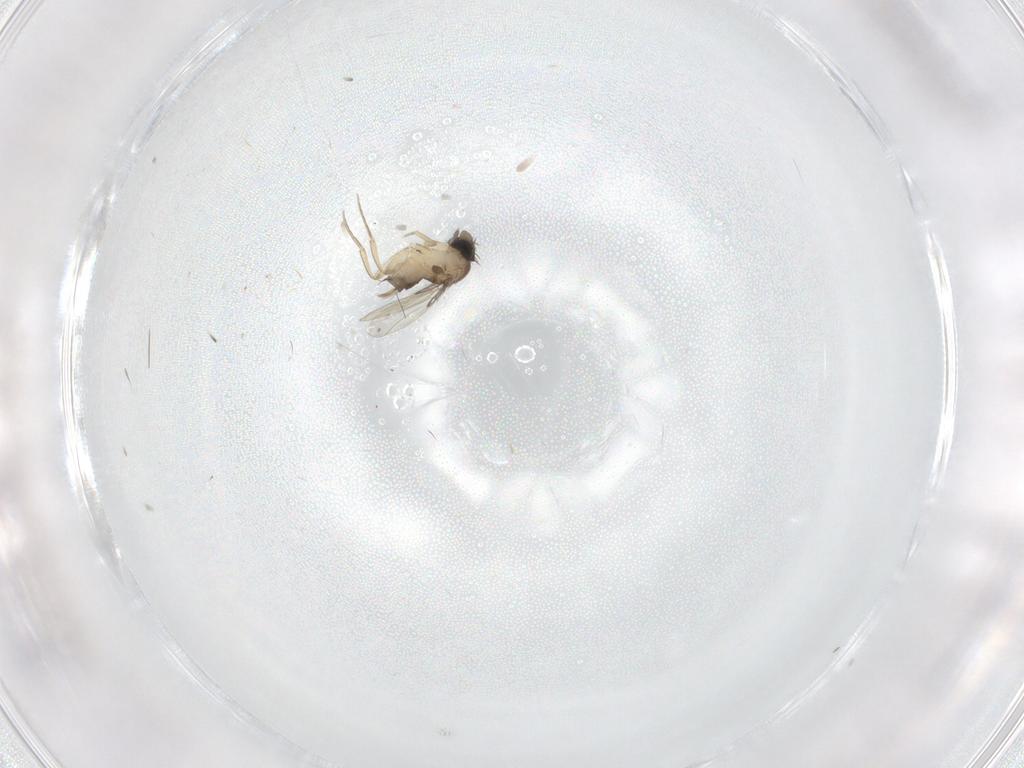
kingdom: Animalia
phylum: Arthropoda
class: Insecta
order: Diptera
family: Phoridae
